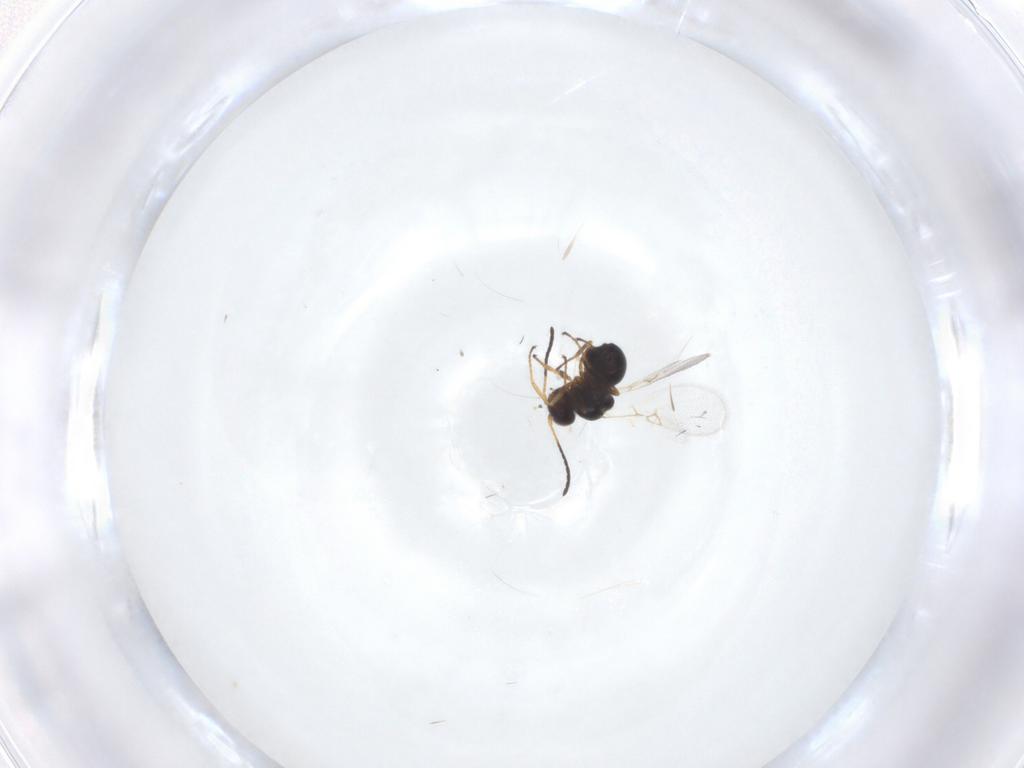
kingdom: Animalia
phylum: Arthropoda
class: Insecta
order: Hymenoptera
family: Figitidae
